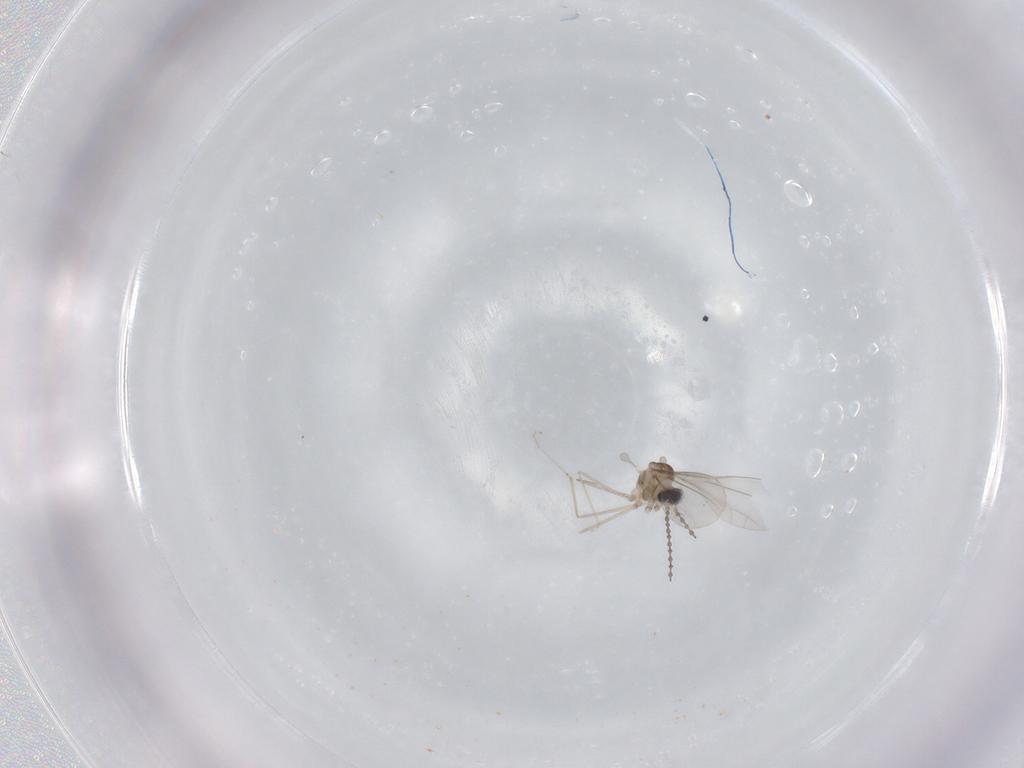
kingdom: Animalia
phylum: Arthropoda
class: Insecta
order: Diptera
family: Cecidomyiidae
